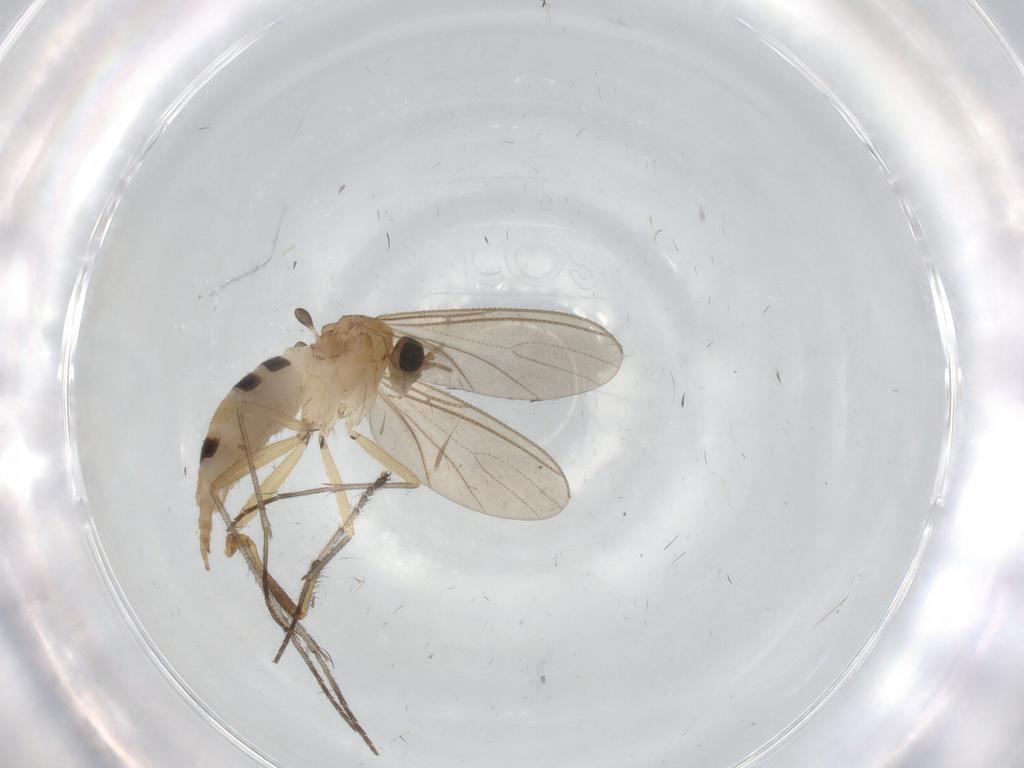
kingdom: Animalia
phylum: Arthropoda
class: Insecta
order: Diptera
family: Sciaridae
